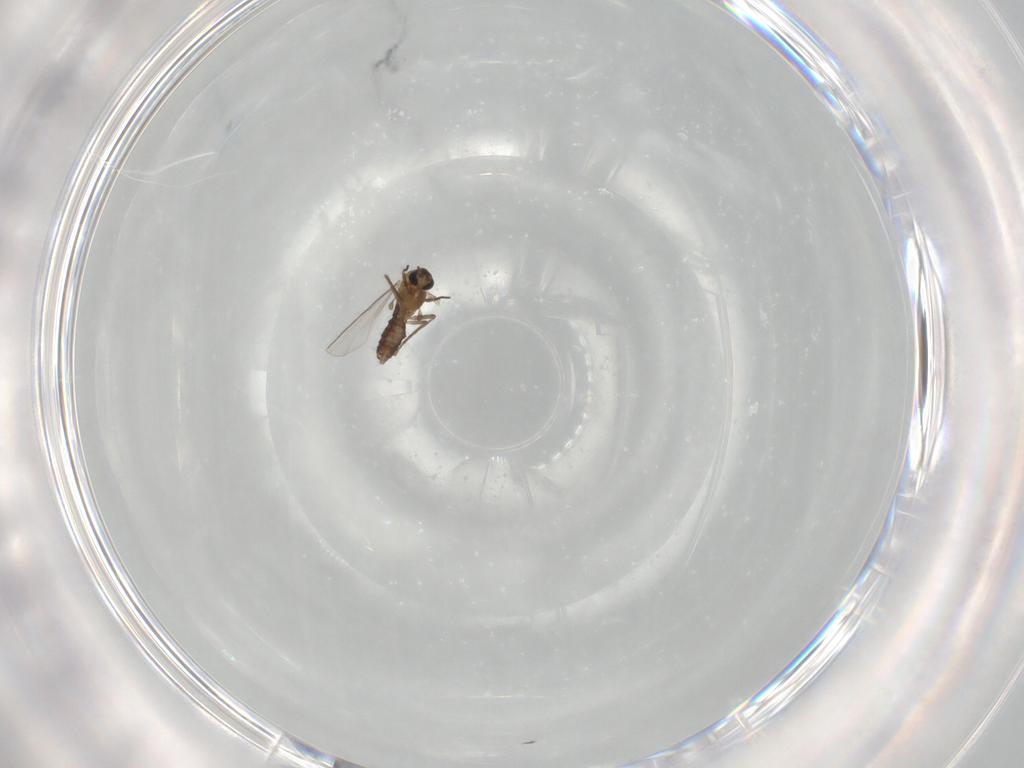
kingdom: Animalia
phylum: Arthropoda
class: Insecta
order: Diptera
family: Chironomidae
